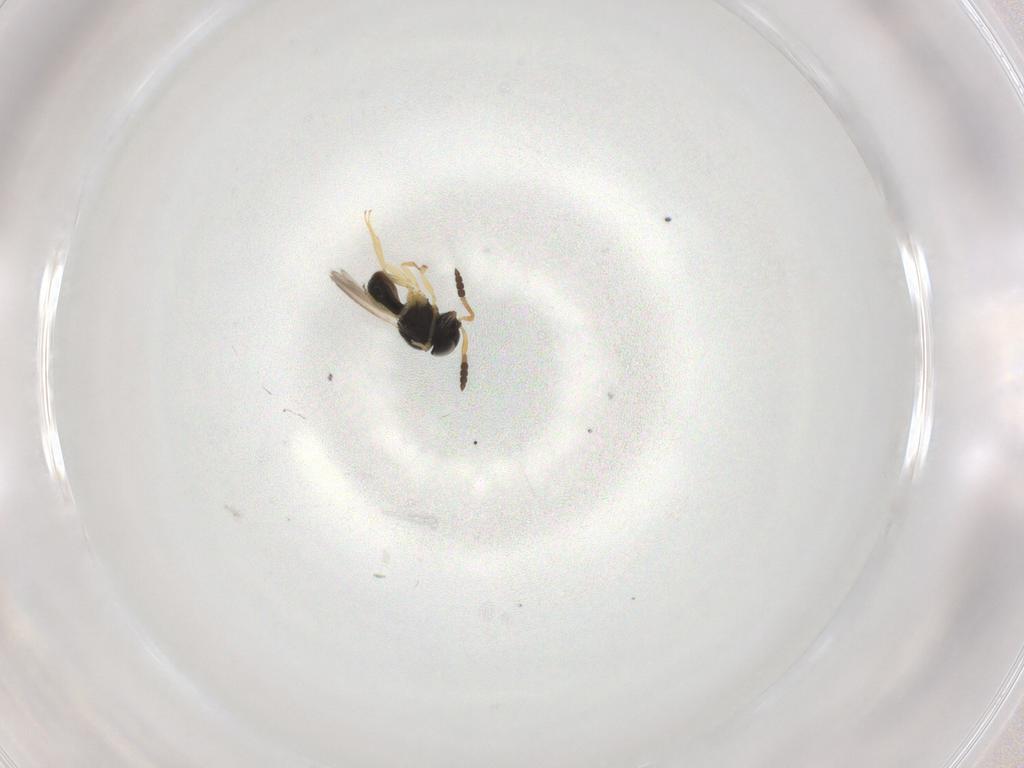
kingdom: Animalia
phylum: Arthropoda
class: Insecta
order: Hymenoptera
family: Scelionidae
